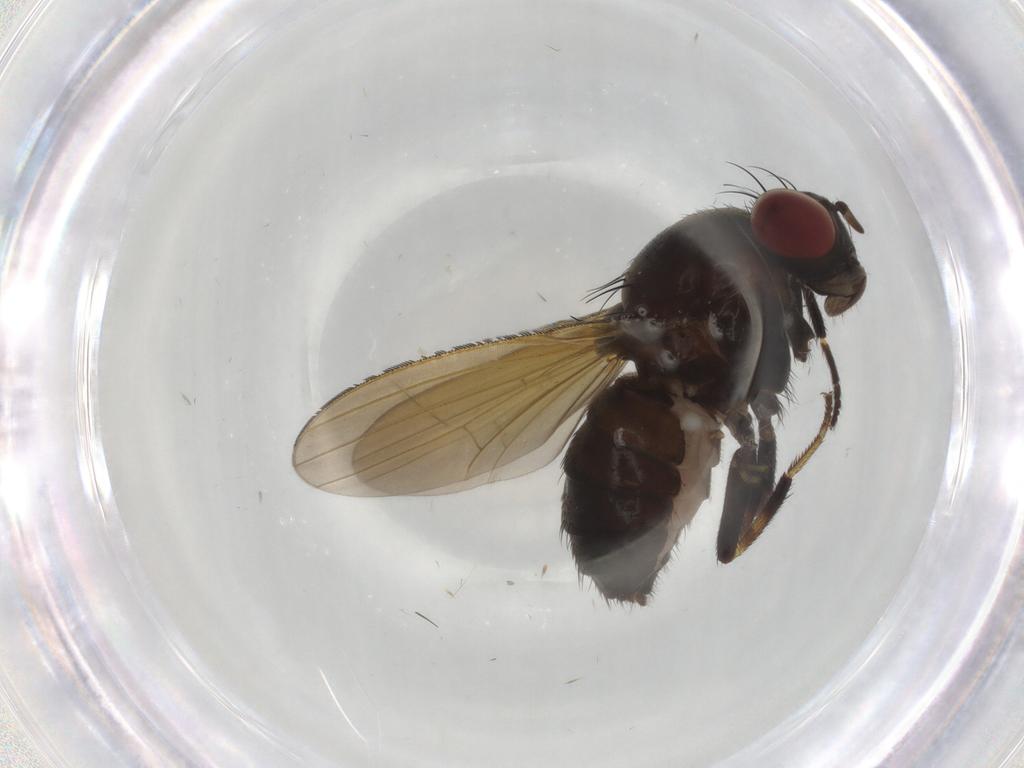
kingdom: Animalia
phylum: Arthropoda
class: Insecta
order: Diptera
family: Lauxaniidae
